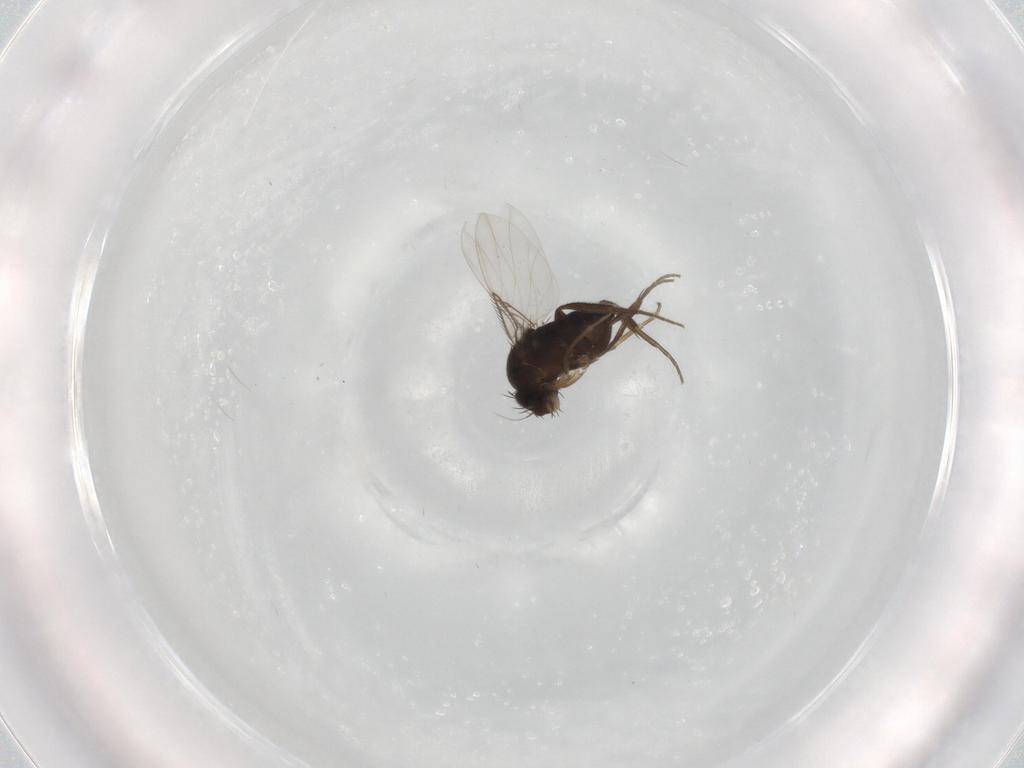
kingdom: Animalia
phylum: Arthropoda
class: Insecta
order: Diptera
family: Phoridae
